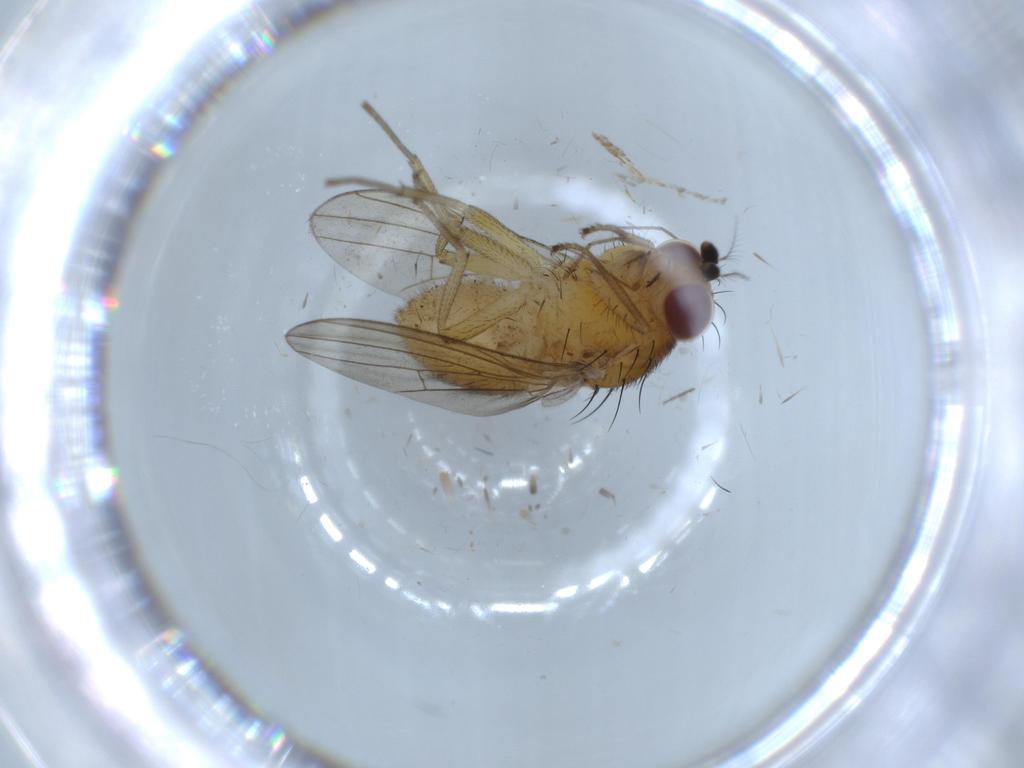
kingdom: Animalia
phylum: Arthropoda
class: Insecta
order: Diptera
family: Lauxaniidae
